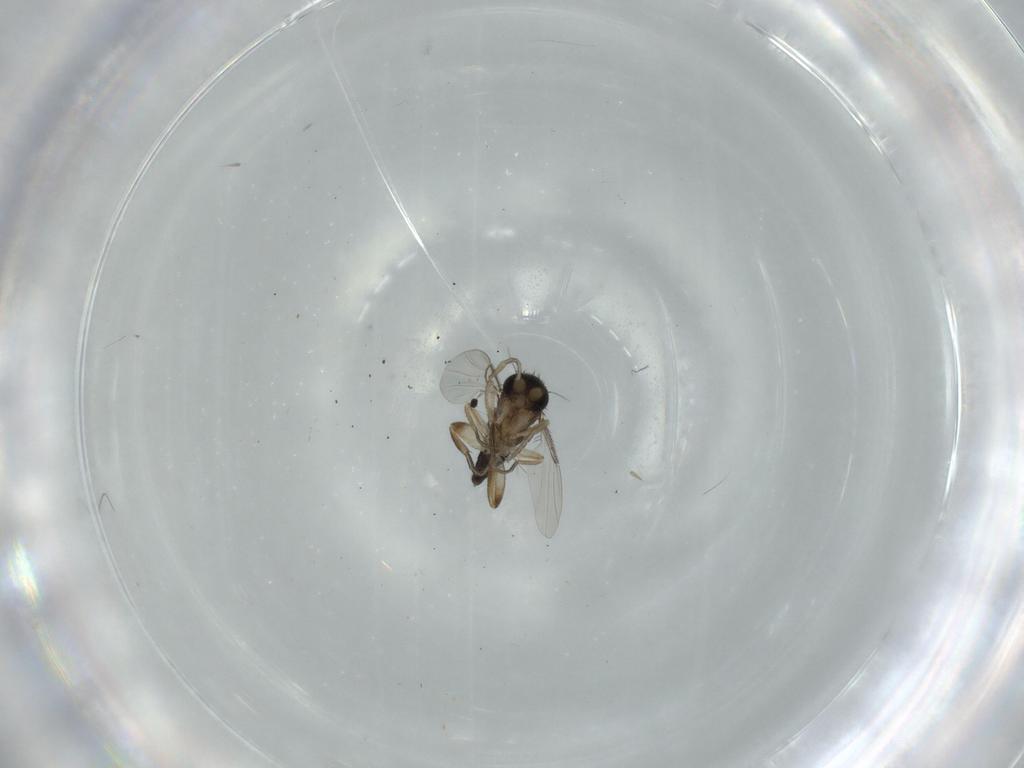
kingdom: Animalia
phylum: Arthropoda
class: Insecta
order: Diptera
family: Phoridae
